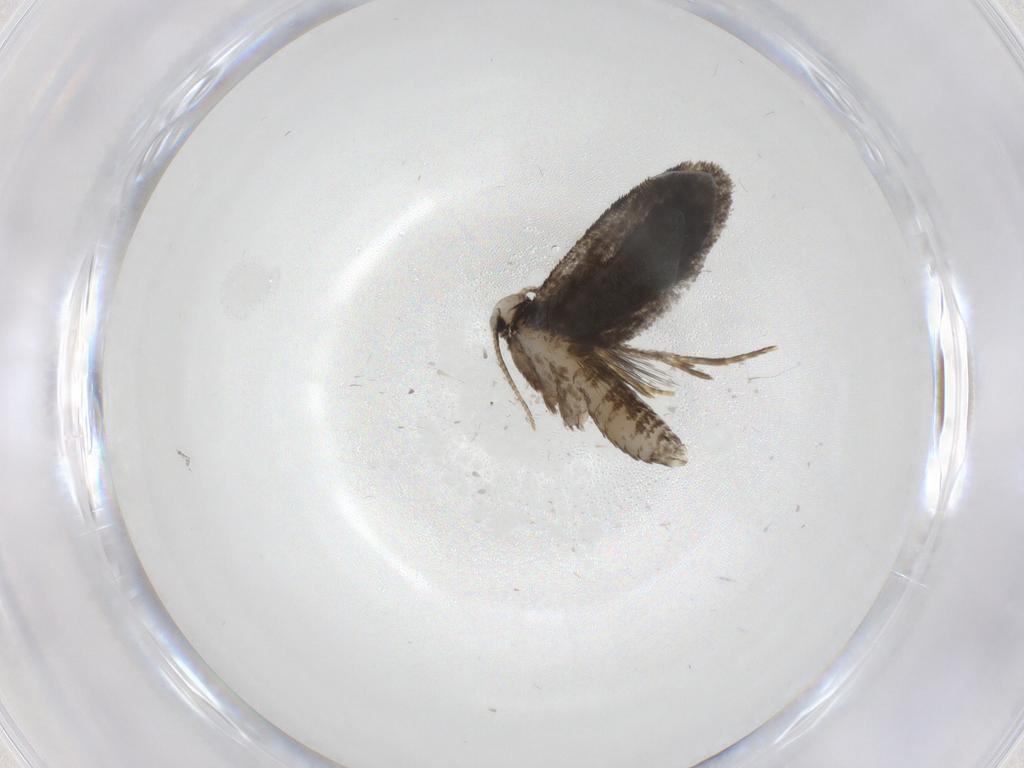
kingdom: Animalia
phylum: Arthropoda
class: Insecta
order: Lepidoptera
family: Psychidae
